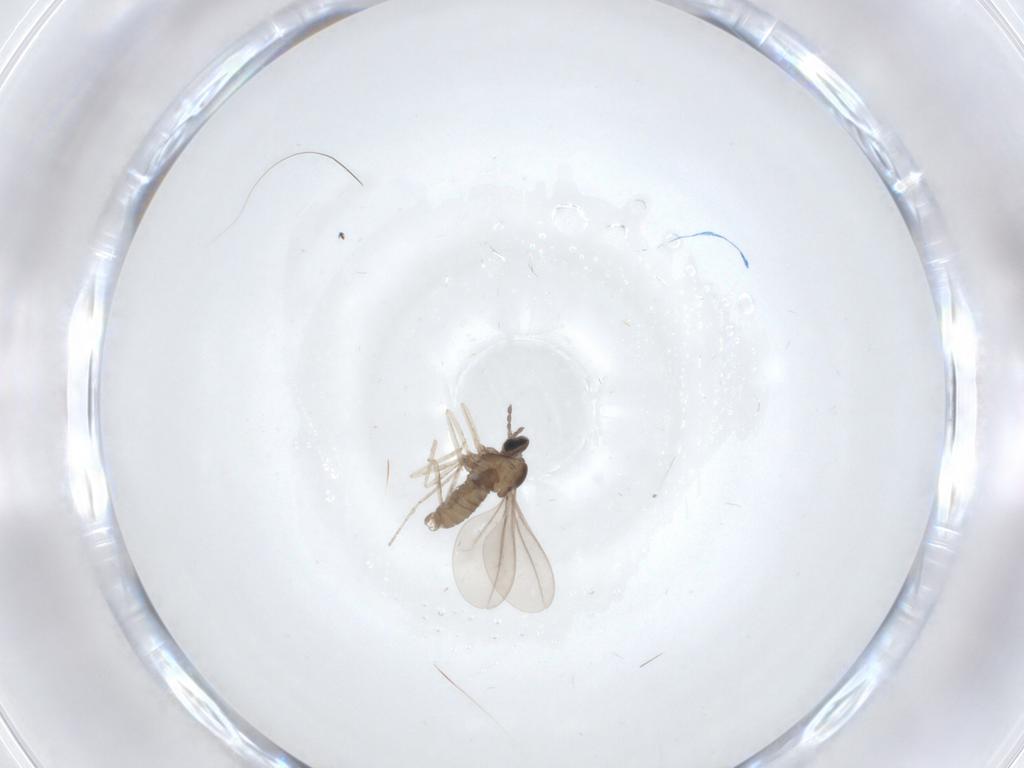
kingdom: Animalia
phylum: Arthropoda
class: Insecta
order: Diptera
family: Cecidomyiidae
